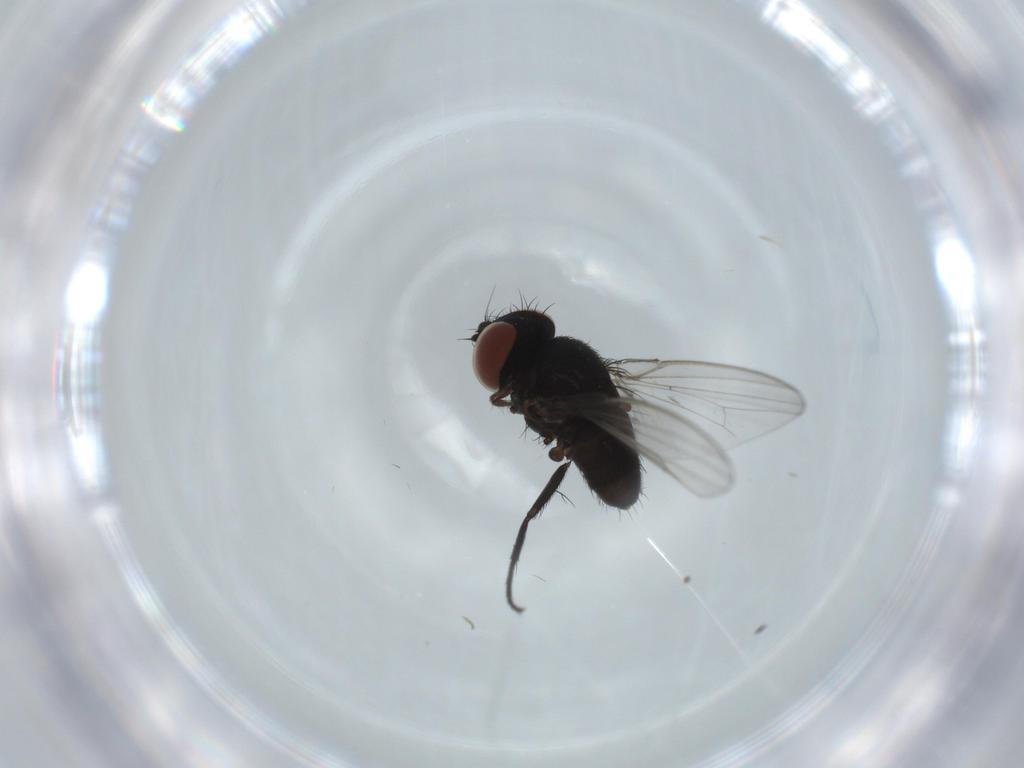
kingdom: Animalia
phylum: Arthropoda
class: Insecta
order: Diptera
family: Milichiidae
